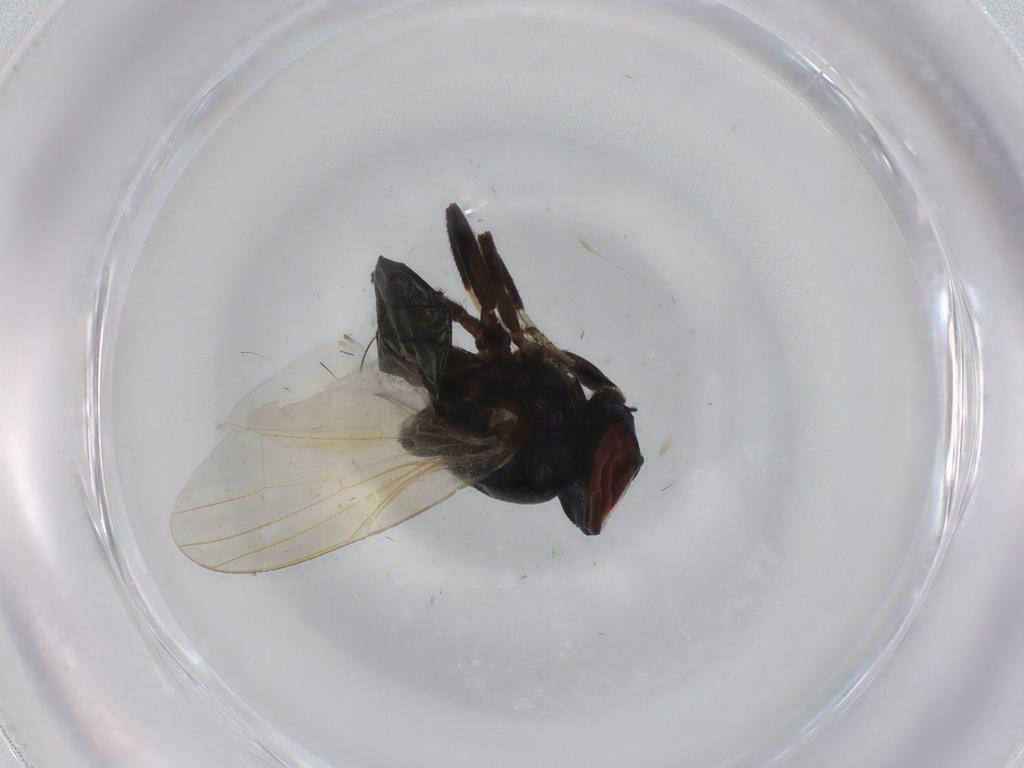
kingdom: Animalia
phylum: Arthropoda
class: Insecta
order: Diptera
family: Lonchaeidae
